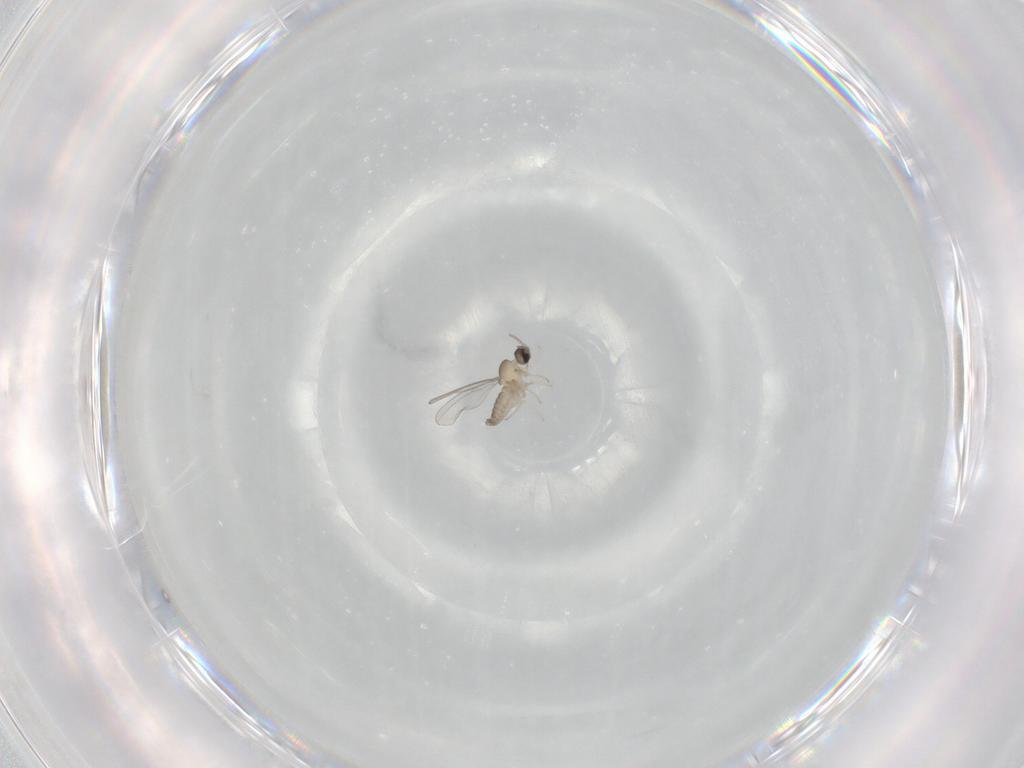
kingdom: Animalia
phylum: Arthropoda
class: Insecta
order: Diptera
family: Cecidomyiidae
